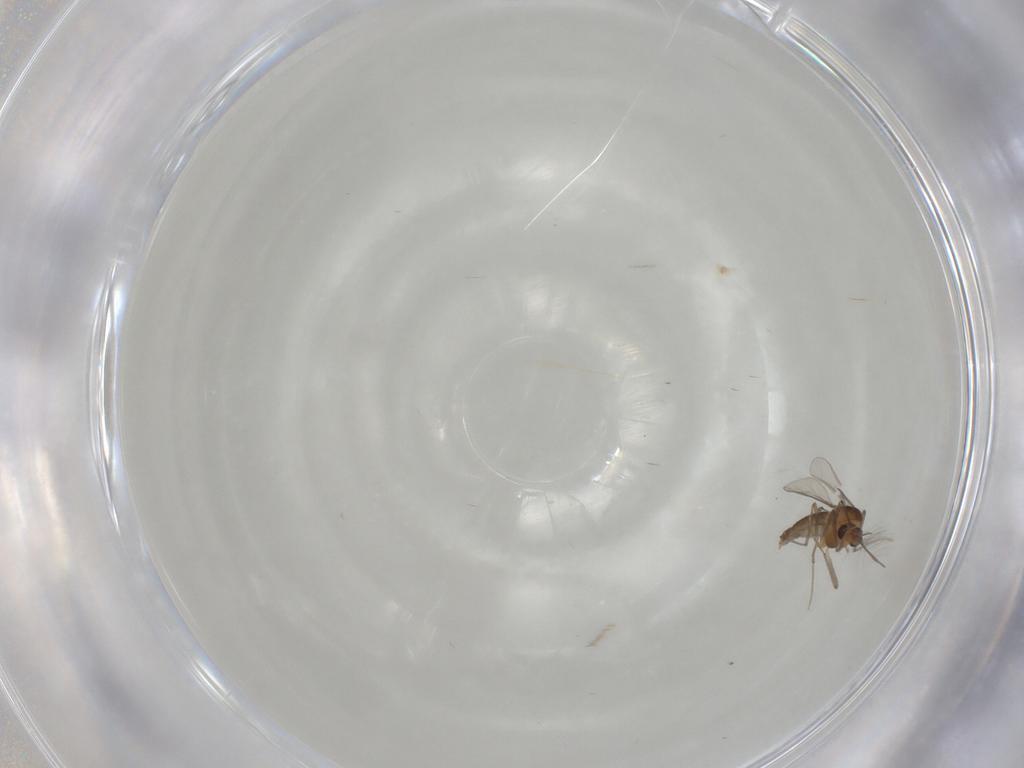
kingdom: Animalia
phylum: Arthropoda
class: Insecta
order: Diptera
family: Chironomidae
